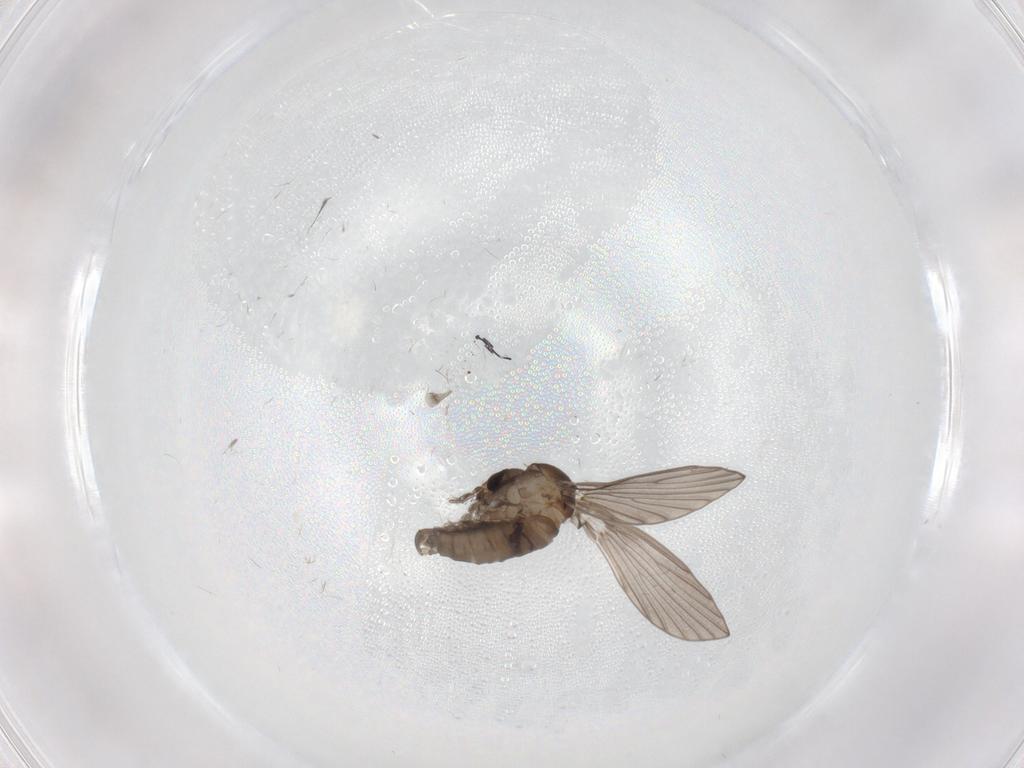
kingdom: Animalia
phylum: Arthropoda
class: Insecta
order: Diptera
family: Psychodidae
